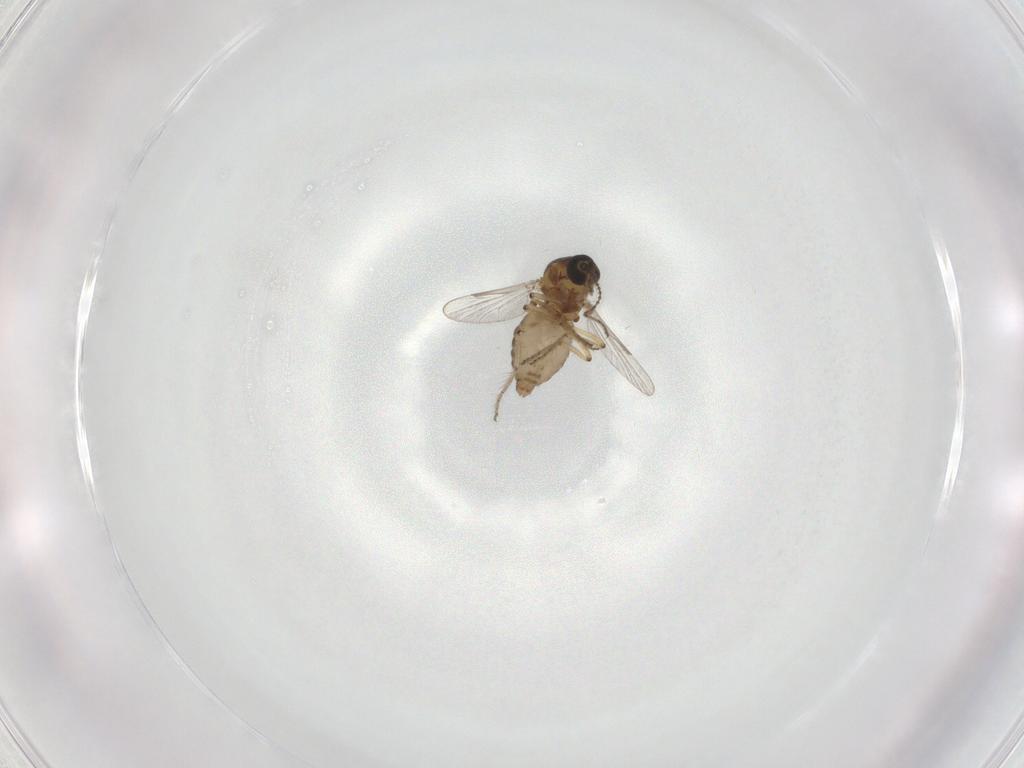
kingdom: Animalia
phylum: Arthropoda
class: Insecta
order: Diptera
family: Ceratopogonidae
